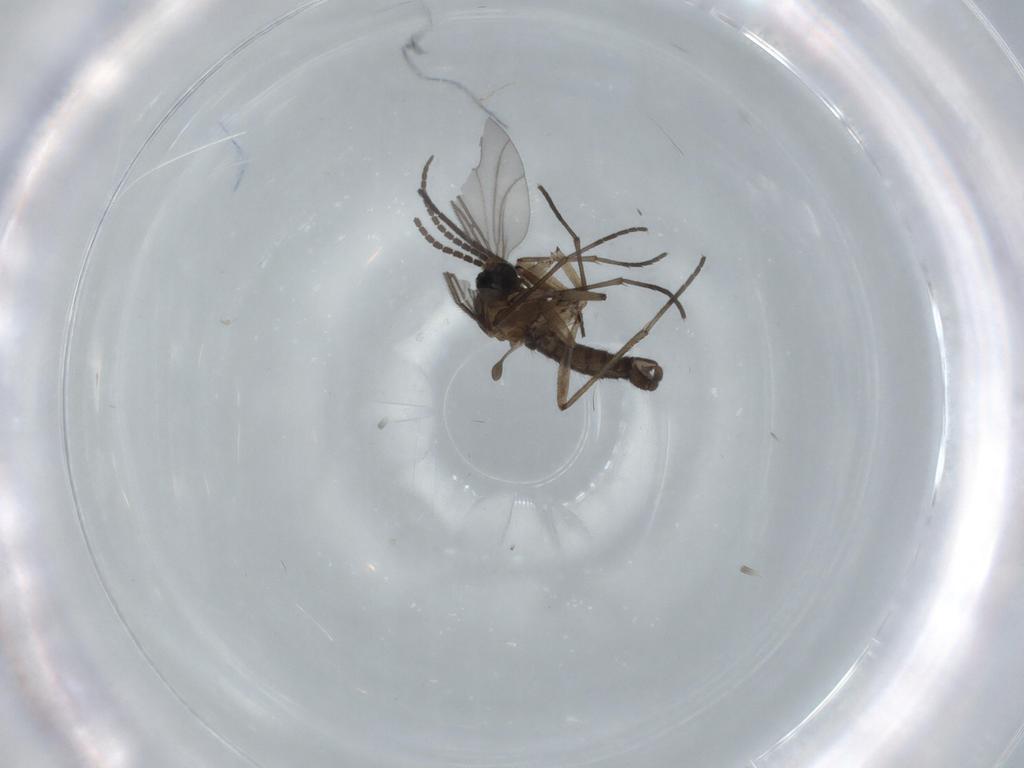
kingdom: Animalia
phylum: Arthropoda
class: Insecta
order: Diptera
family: Sciaridae
